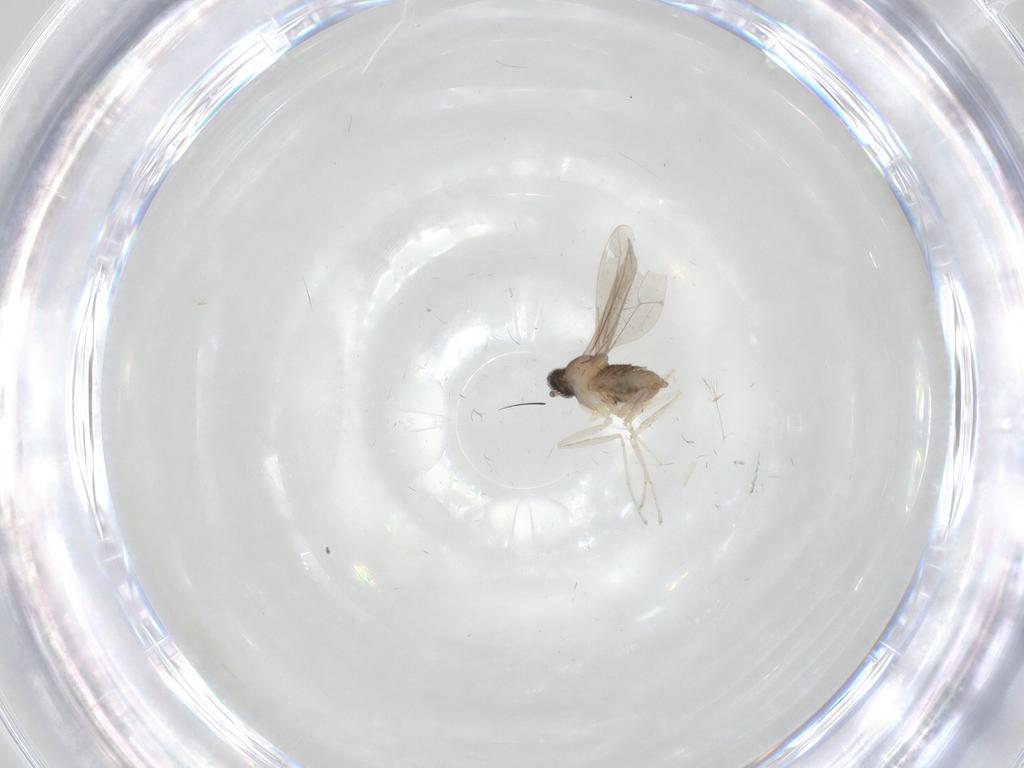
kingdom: Animalia
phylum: Arthropoda
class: Insecta
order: Diptera
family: Cecidomyiidae
